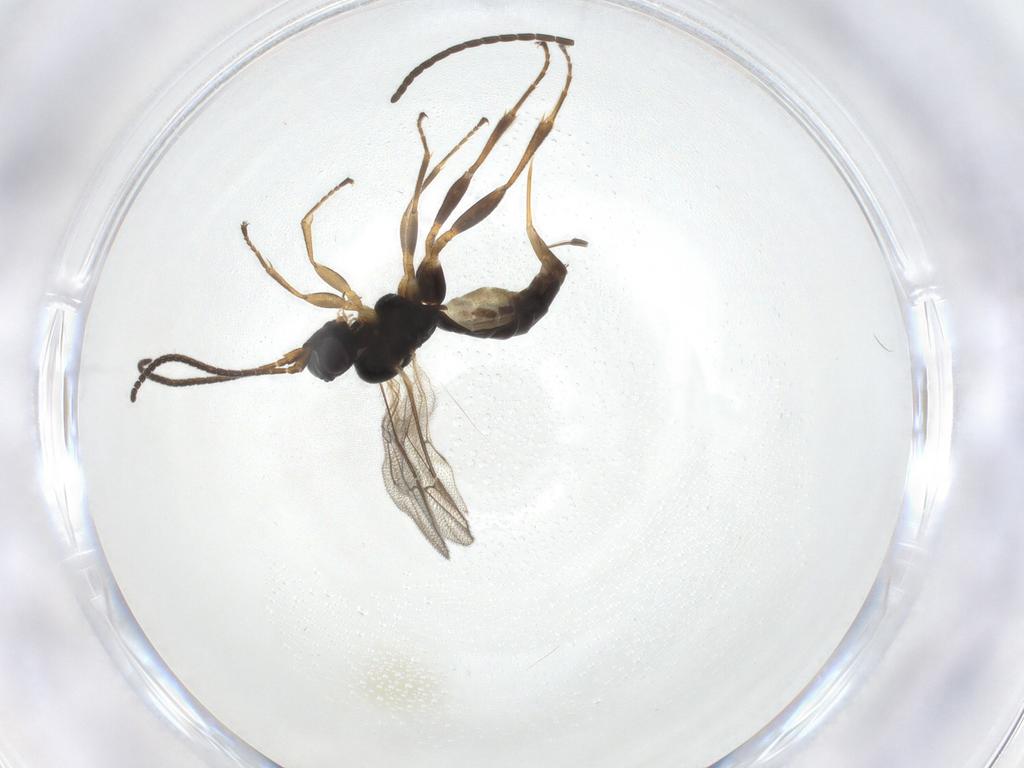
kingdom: Animalia
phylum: Arthropoda
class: Insecta
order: Hymenoptera
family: Ichneumonidae
